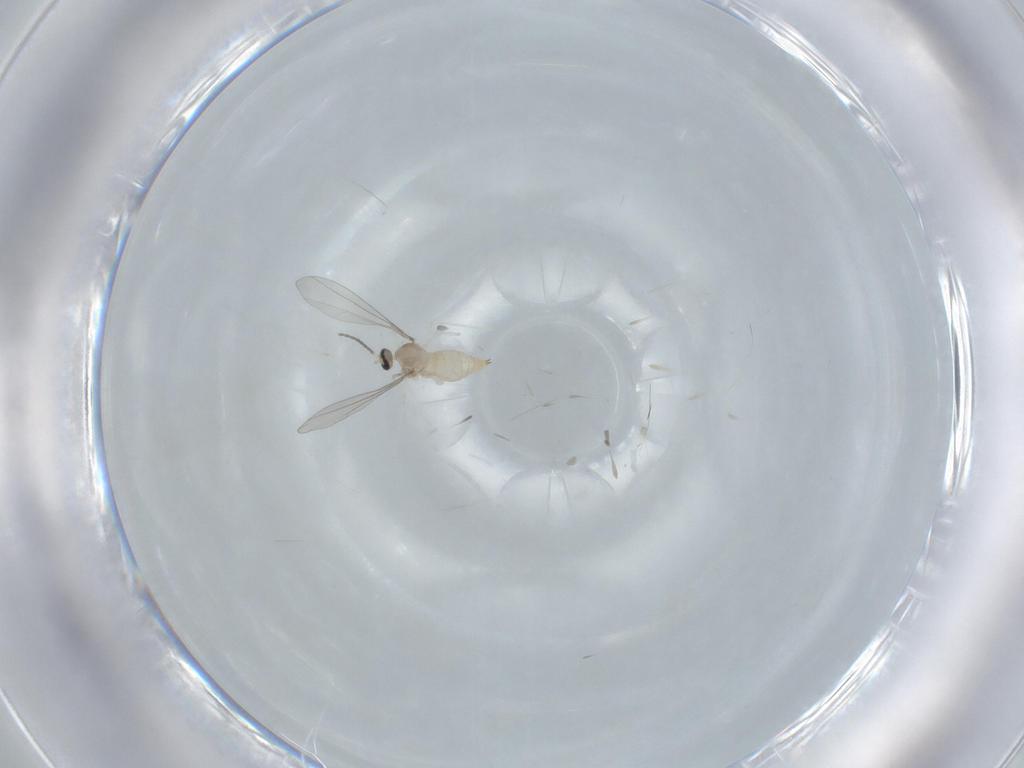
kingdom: Animalia
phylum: Arthropoda
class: Insecta
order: Diptera
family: Cecidomyiidae
